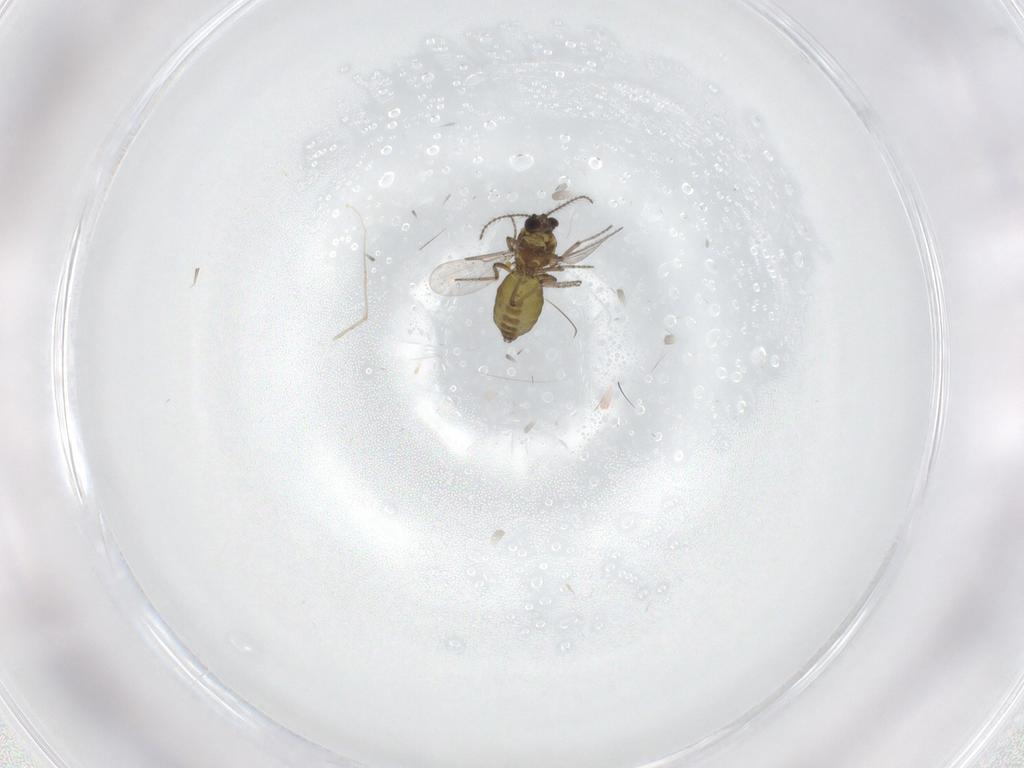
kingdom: Animalia
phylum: Arthropoda
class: Insecta
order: Diptera
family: Cecidomyiidae
